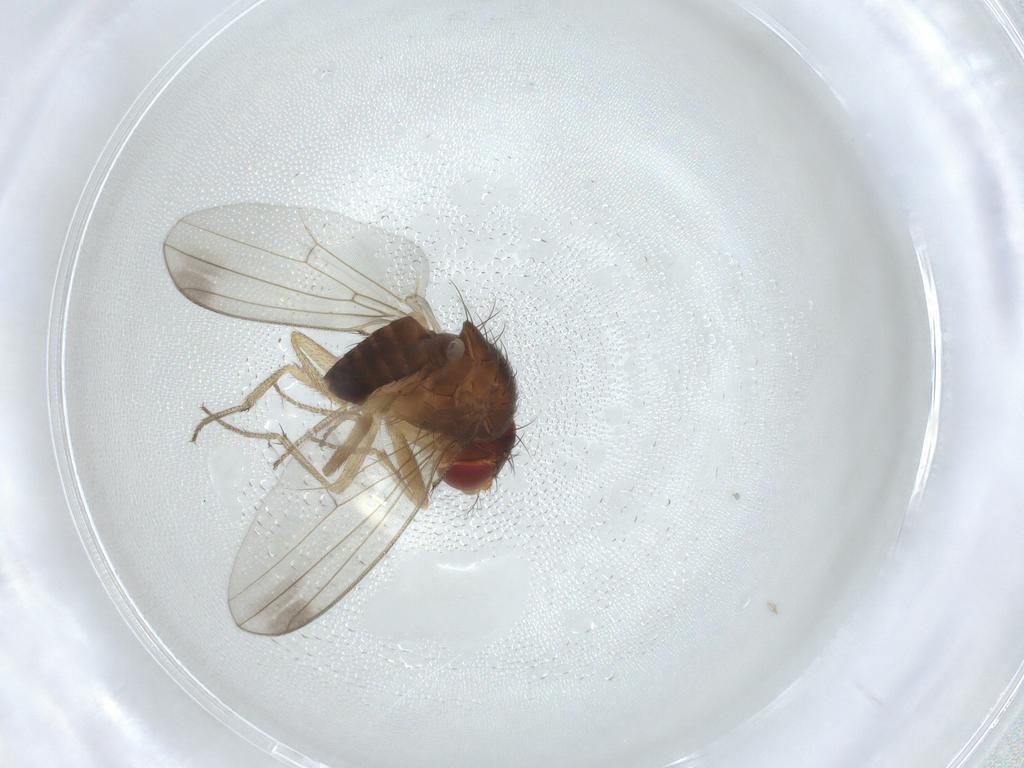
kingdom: Animalia
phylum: Arthropoda
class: Insecta
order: Diptera
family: Drosophilidae
